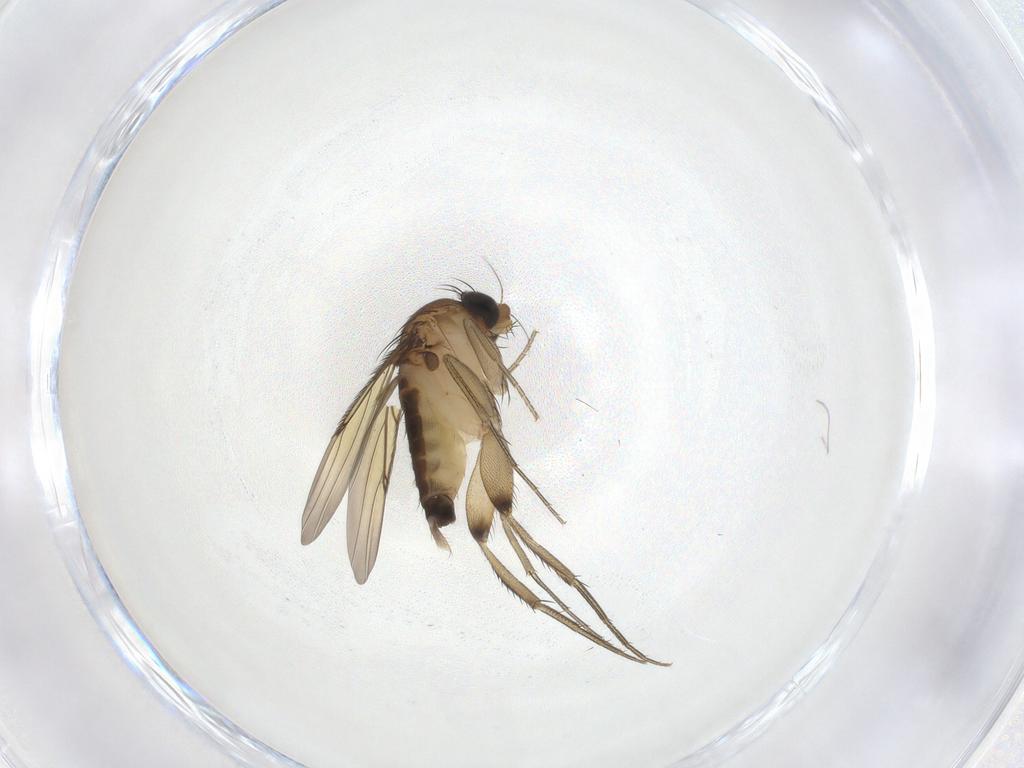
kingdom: Animalia
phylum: Arthropoda
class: Insecta
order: Diptera
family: Phoridae
